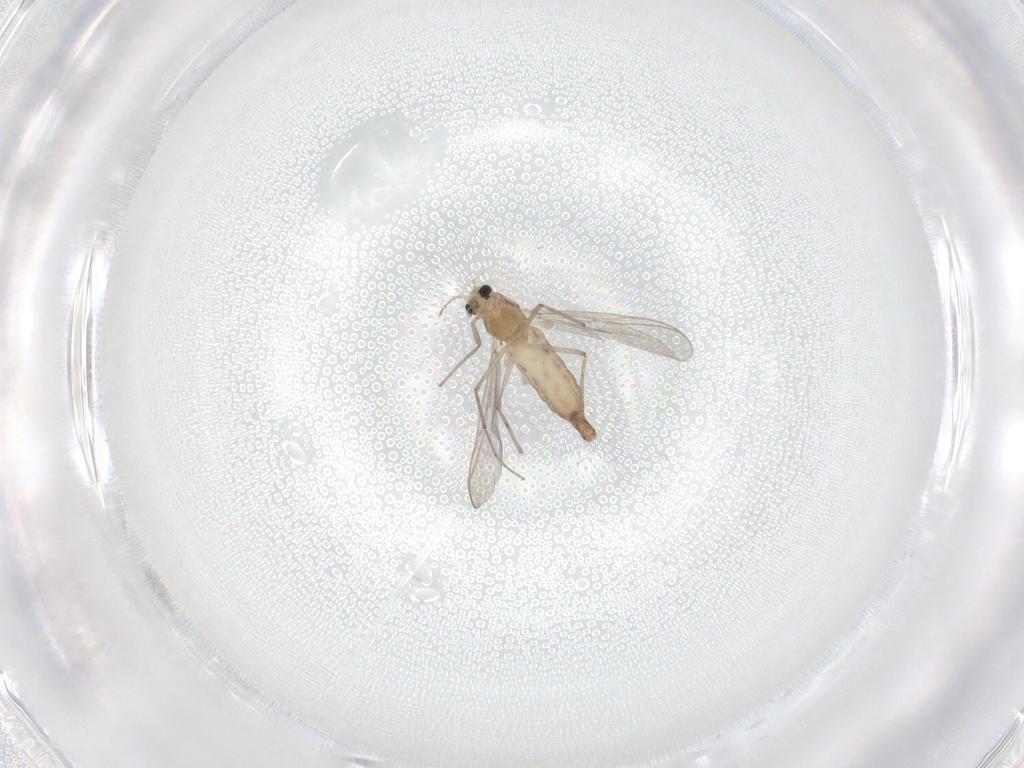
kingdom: Animalia
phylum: Arthropoda
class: Insecta
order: Diptera
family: Chironomidae
